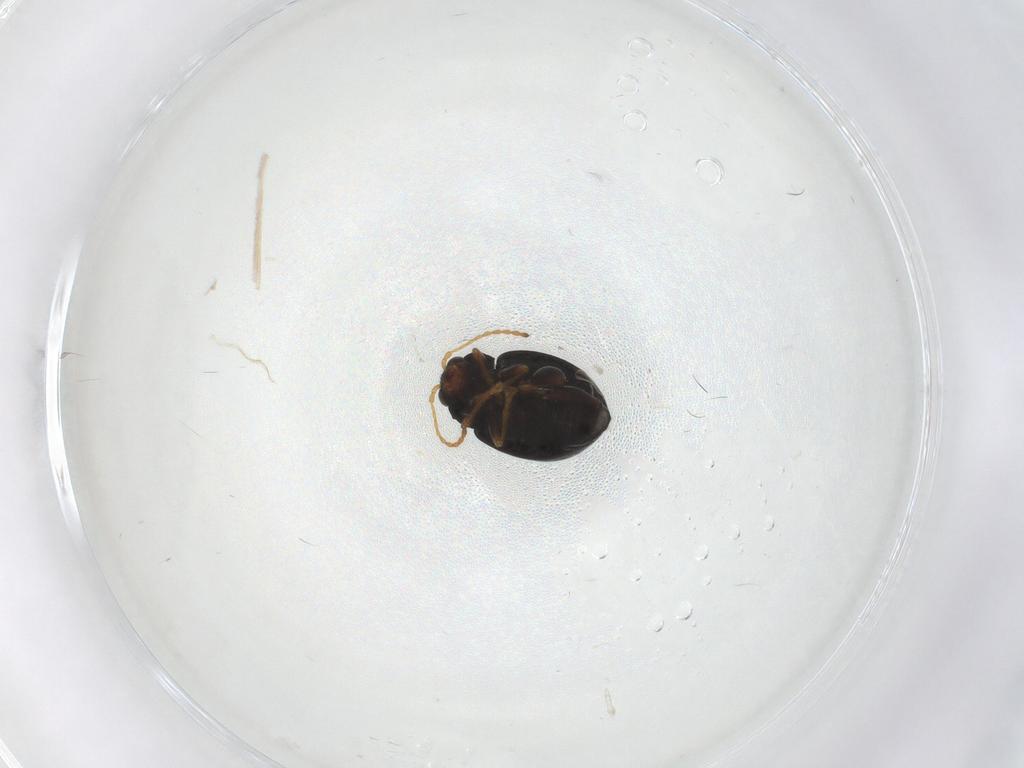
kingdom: Animalia
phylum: Arthropoda
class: Insecta
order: Coleoptera
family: Chrysomelidae
